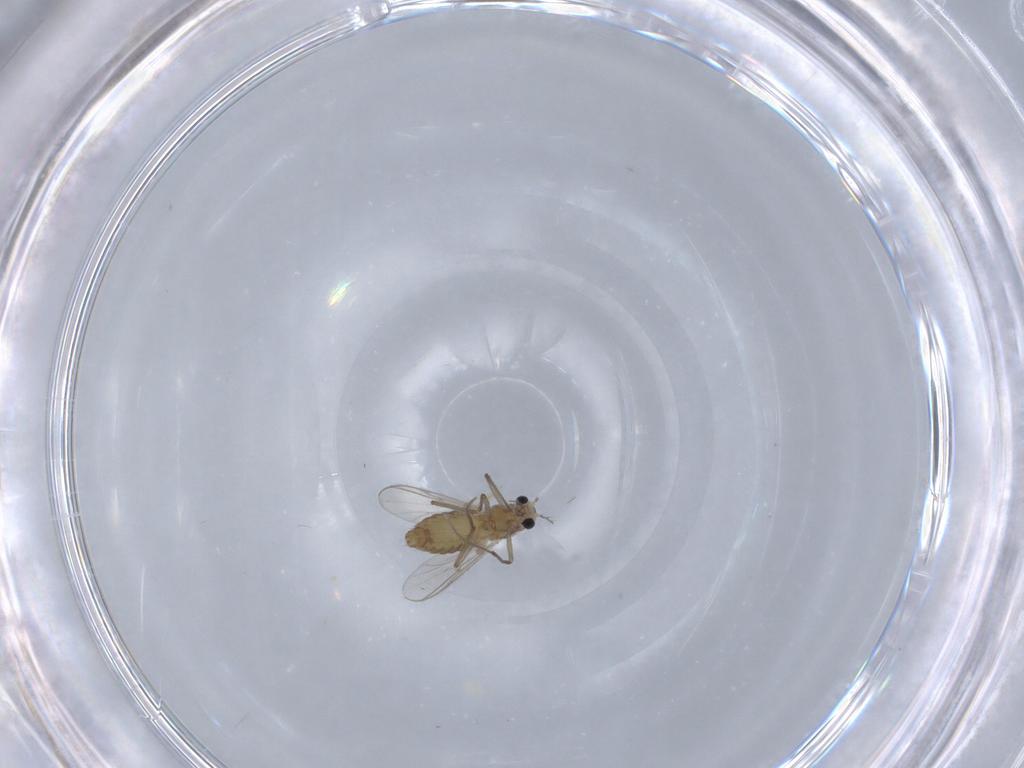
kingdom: Animalia
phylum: Arthropoda
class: Insecta
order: Diptera
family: Chironomidae
